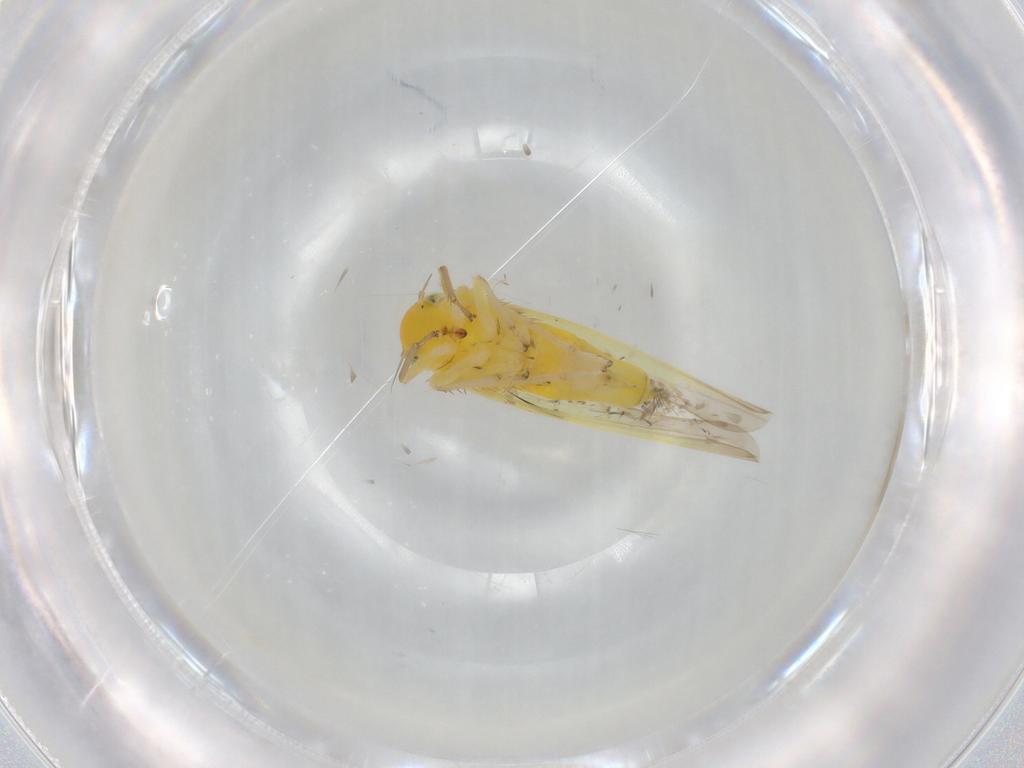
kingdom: Animalia
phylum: Arthropoda
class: Insecta
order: Hemiptera
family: Cicadellidae
